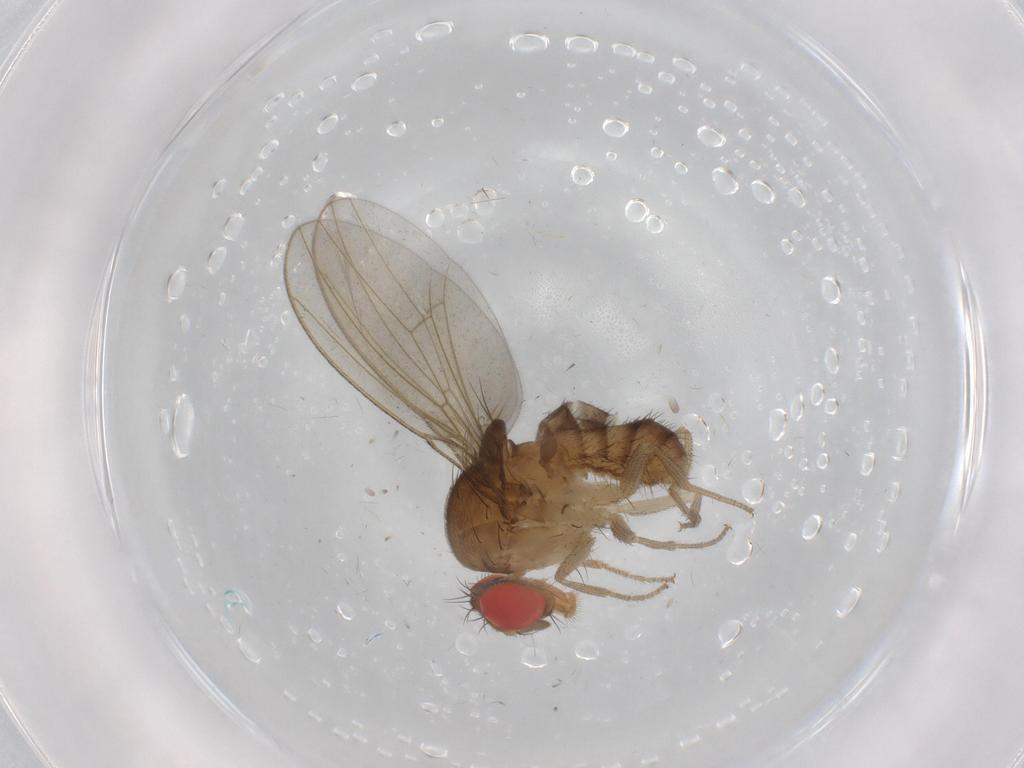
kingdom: Animalia
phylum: Arthropoda
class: Insecta
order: Diptera
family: Drosophilidae
